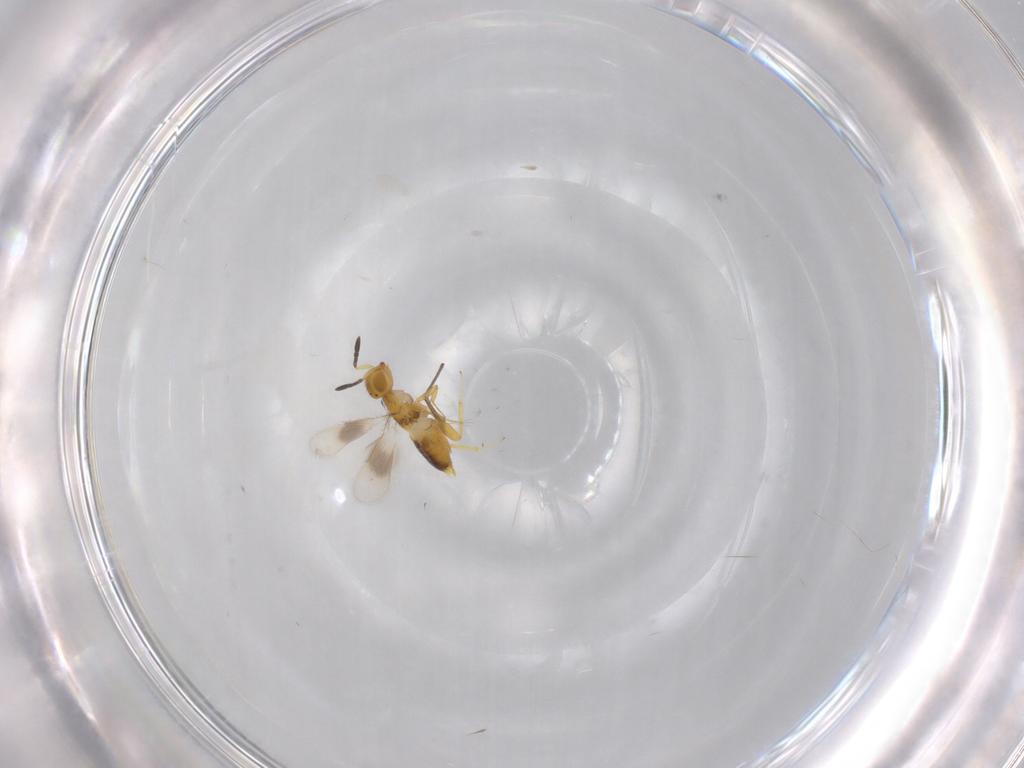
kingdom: Animalia
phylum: Arthropoda
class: Insecta
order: Hymenoptera
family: Encyrtidae
